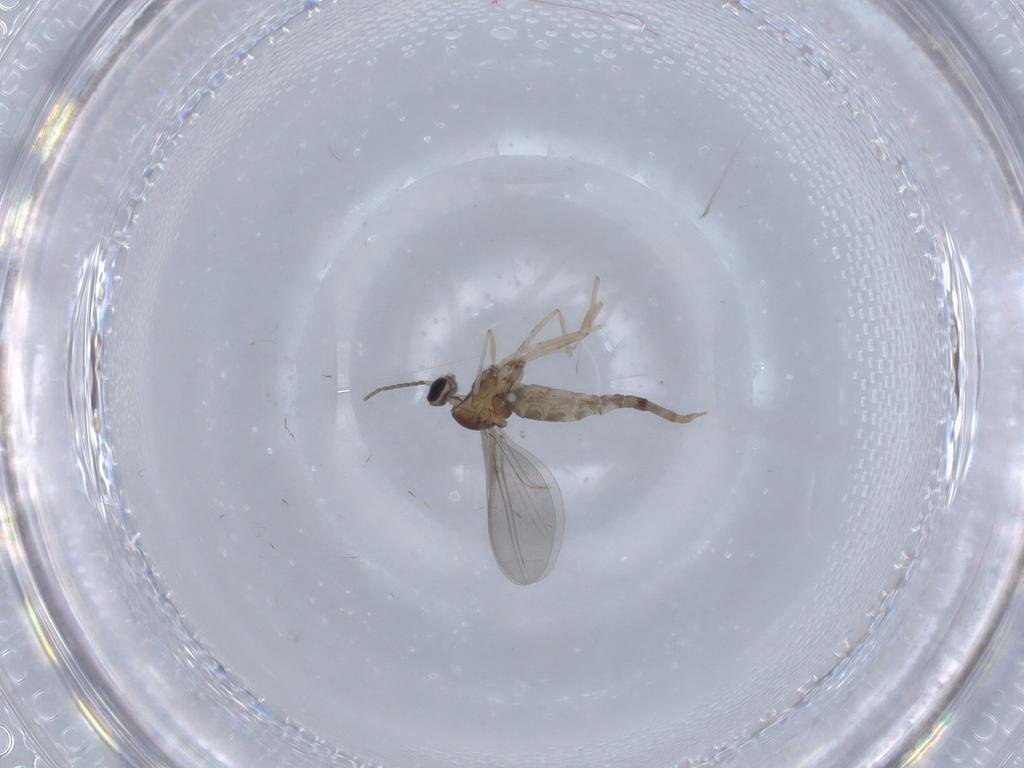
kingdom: Animalia
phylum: Arthropoda
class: Insecta
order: Diptera
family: Cecidomyiidae
